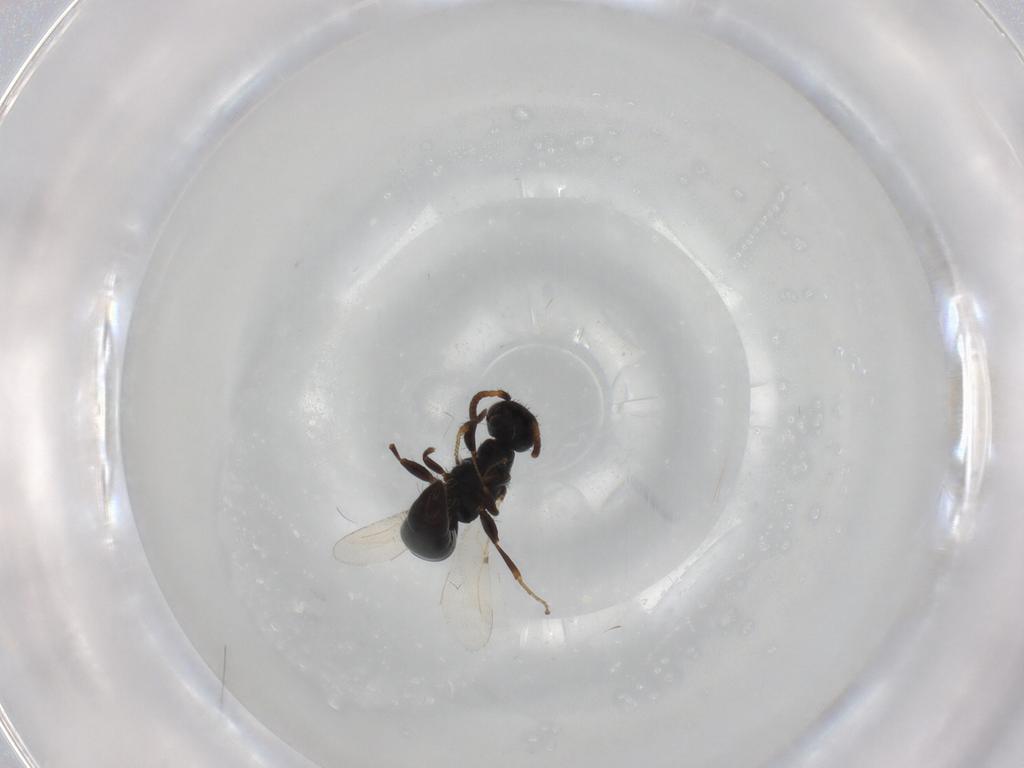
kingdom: Animalia
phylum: Arthropoda
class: Insecta
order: Hymenoptera
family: Bethylidae
